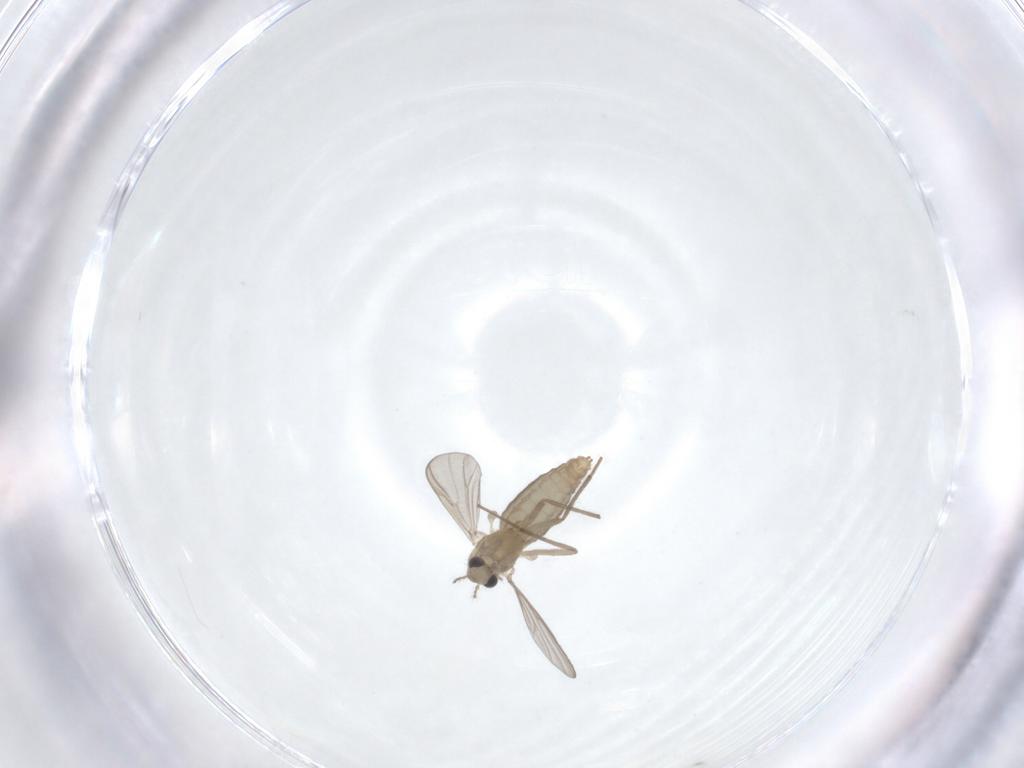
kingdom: Animalia
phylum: Arthropoda
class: Insecta
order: Diptera
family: Chironomidae
